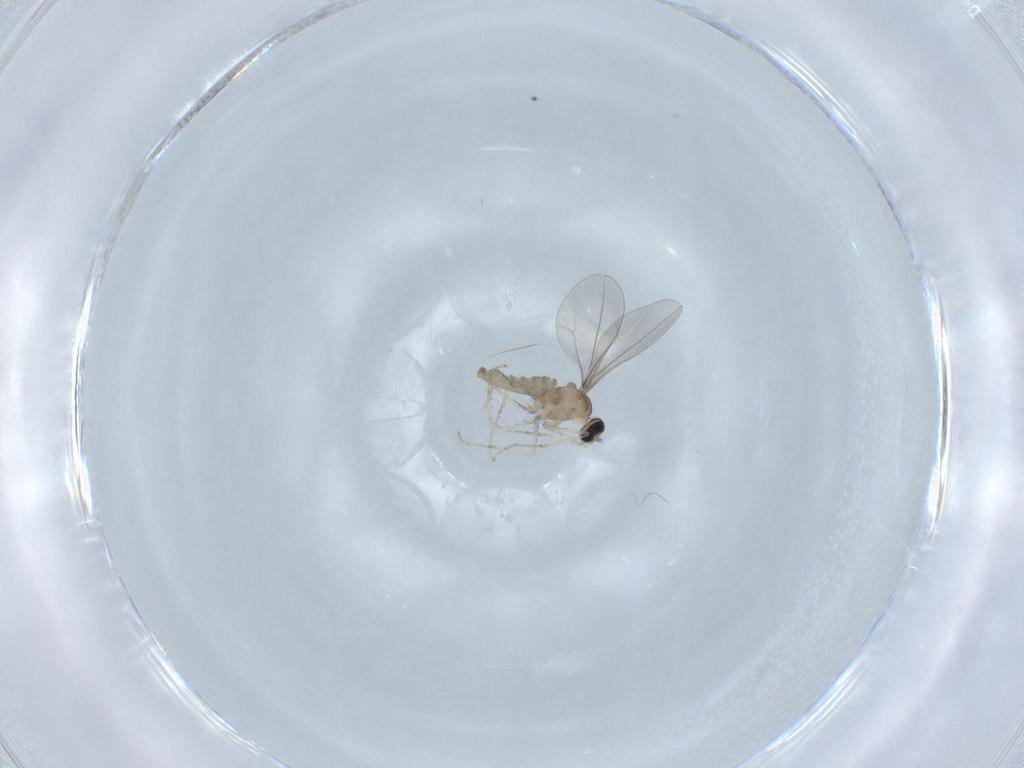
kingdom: Animalia
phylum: Arthropoda
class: Insecta
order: Diptera
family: Cecidomyiidae
